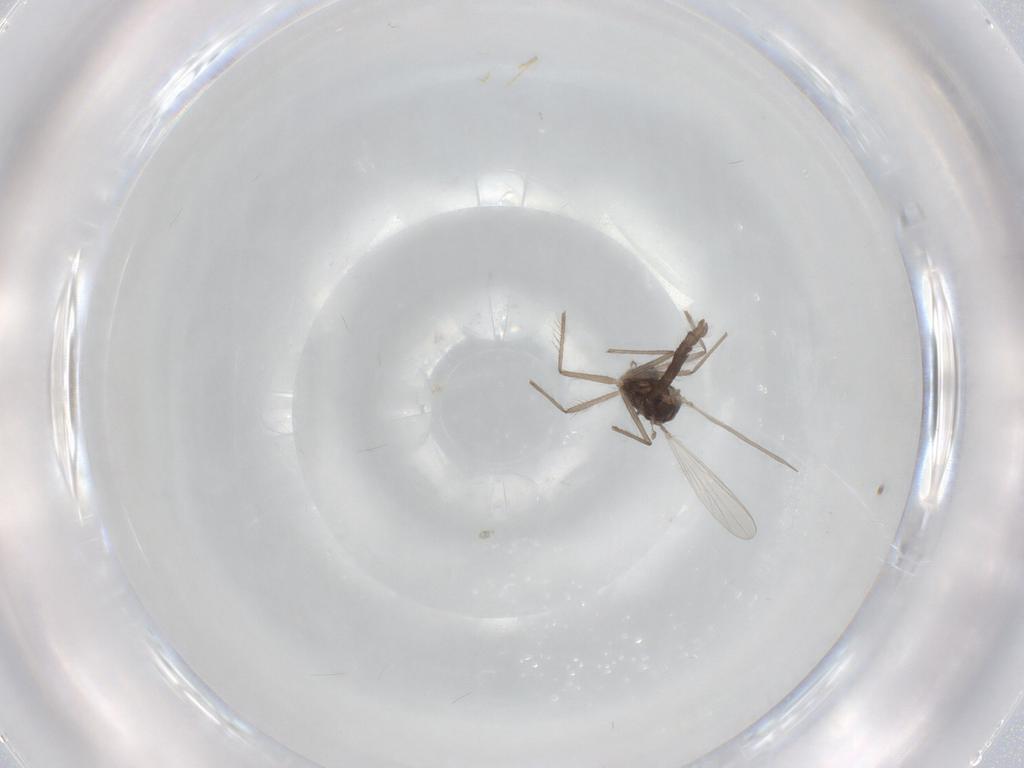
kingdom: Animalia
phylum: Arthropoda
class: Insecta
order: Diptera
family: Chironomidae
